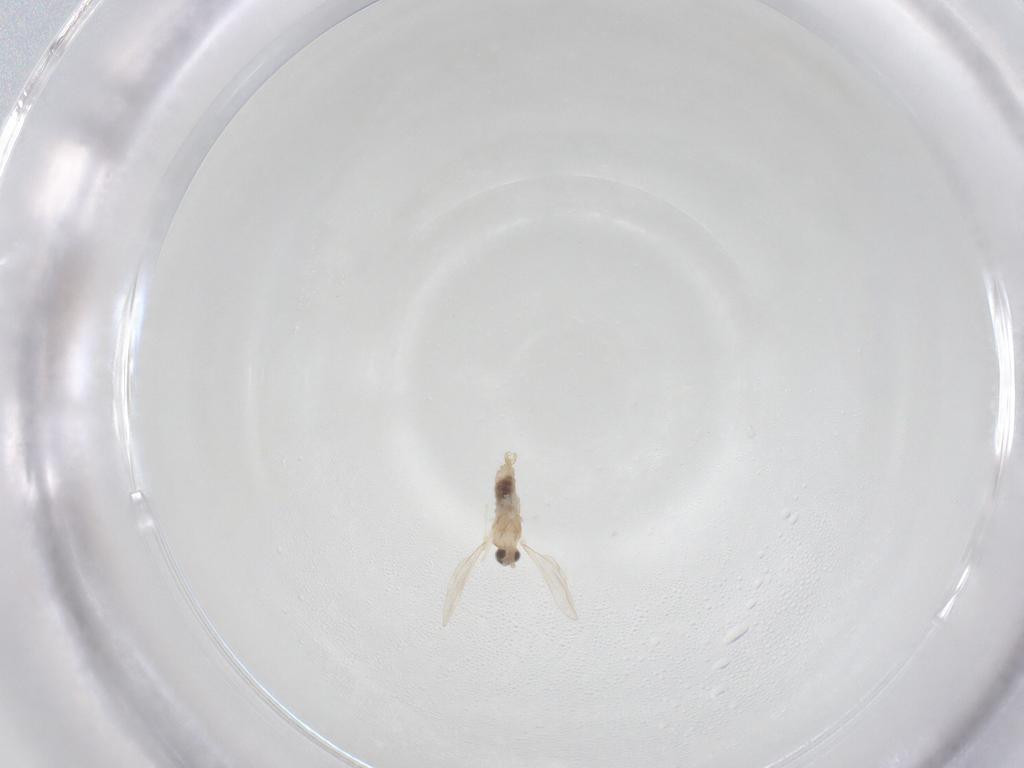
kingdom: Animalia
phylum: Arthropoda
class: Insecta
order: Diptera
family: Cecidomyiidae
